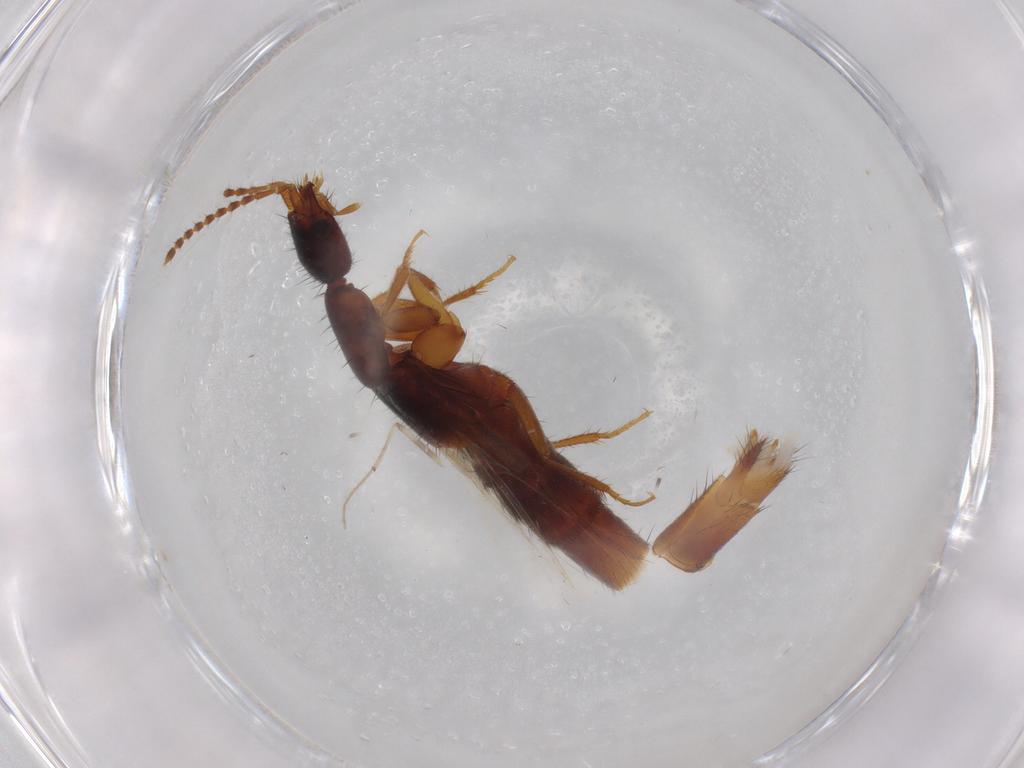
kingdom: Animalia
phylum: Arthropoda
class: Insecta
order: Coleoptera
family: Staphylinidae
